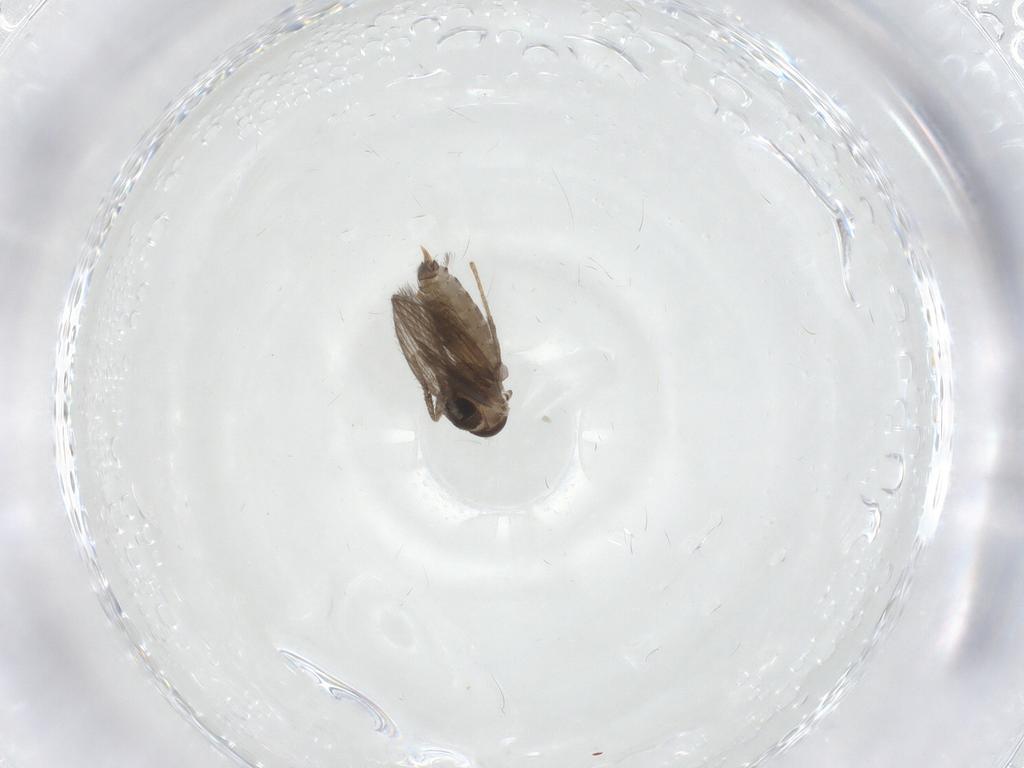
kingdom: Animalia
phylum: Arthropoda
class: Insecta
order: Diptera
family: Psychodidae
